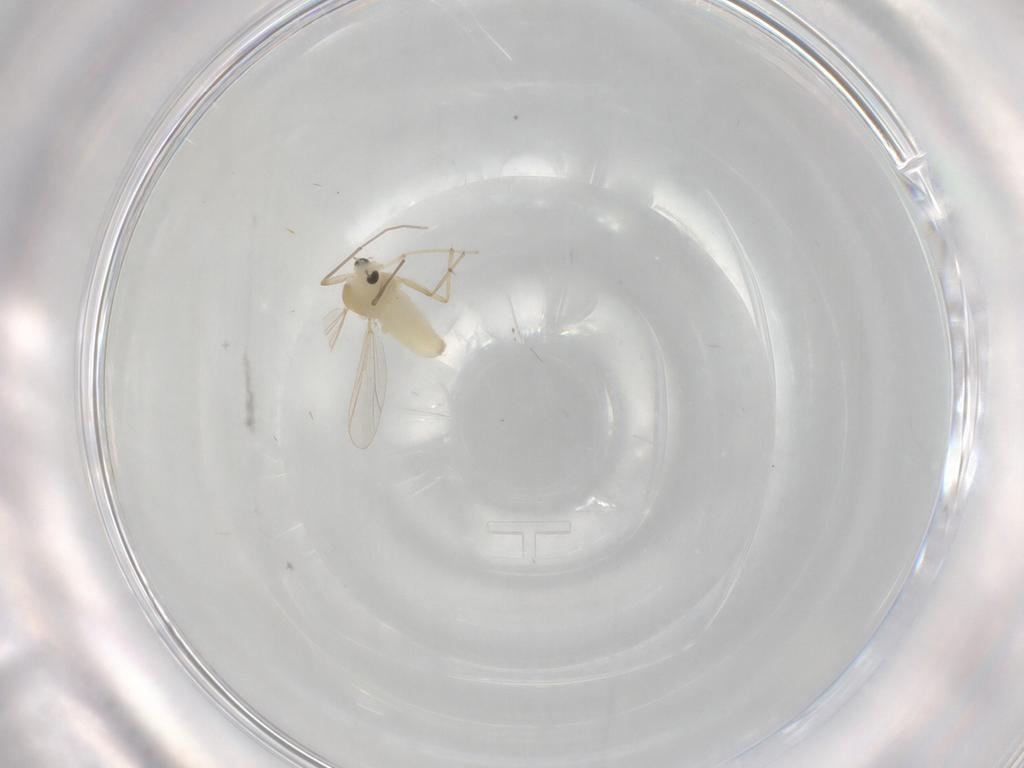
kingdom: Animalia
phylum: Arthropoda
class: Insecta
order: Diptera
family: Chironomidae
